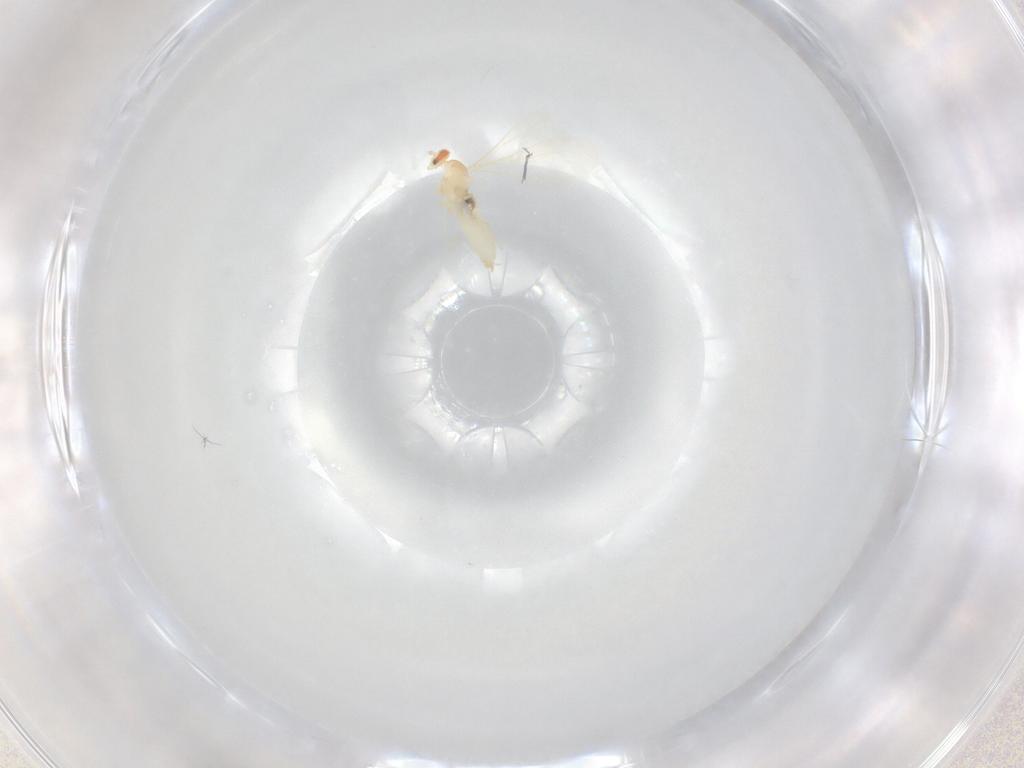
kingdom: Animalia
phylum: Arthropoda
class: Insecta
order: Diptera
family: Cecidomyiidae
